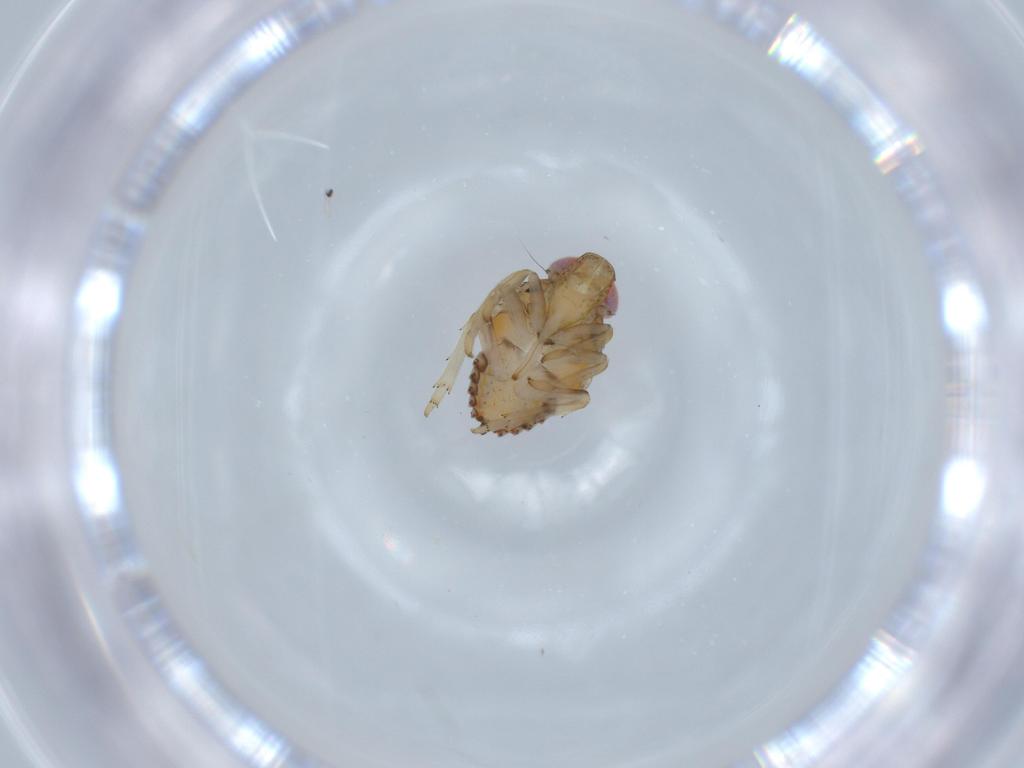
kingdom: Animalia
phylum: Arthropoda
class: Insecta
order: Hemiptera
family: Issidae
